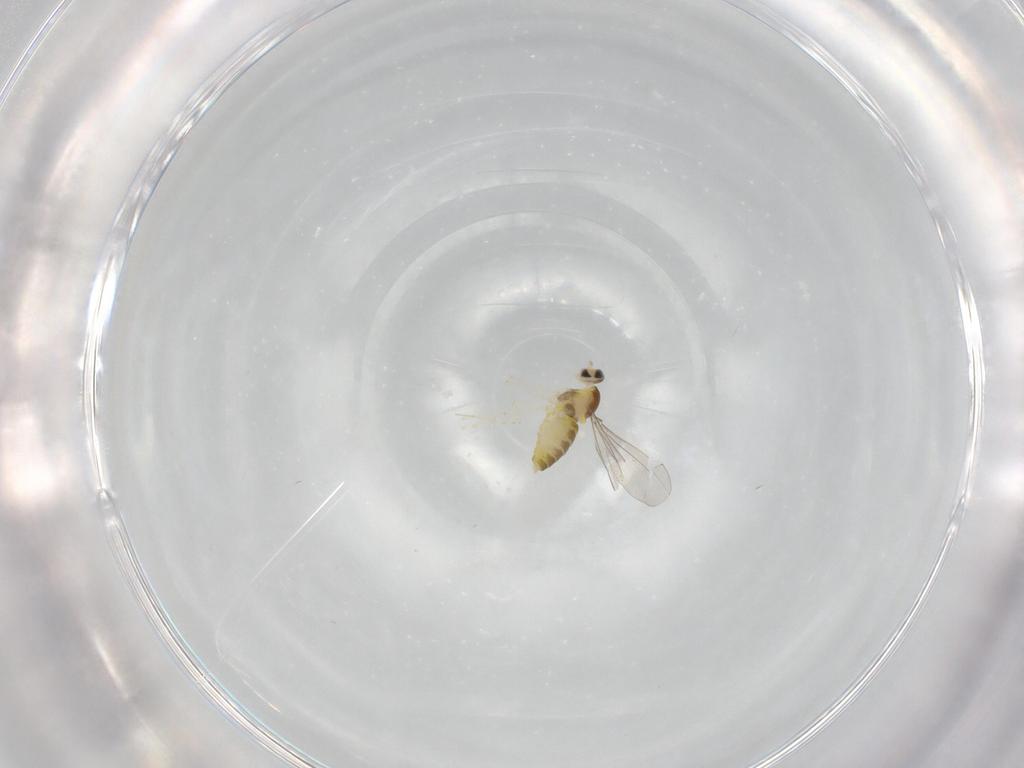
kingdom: Animalia
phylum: Arthropoda
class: Insecta
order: Diptera
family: Cecidomyiidae
